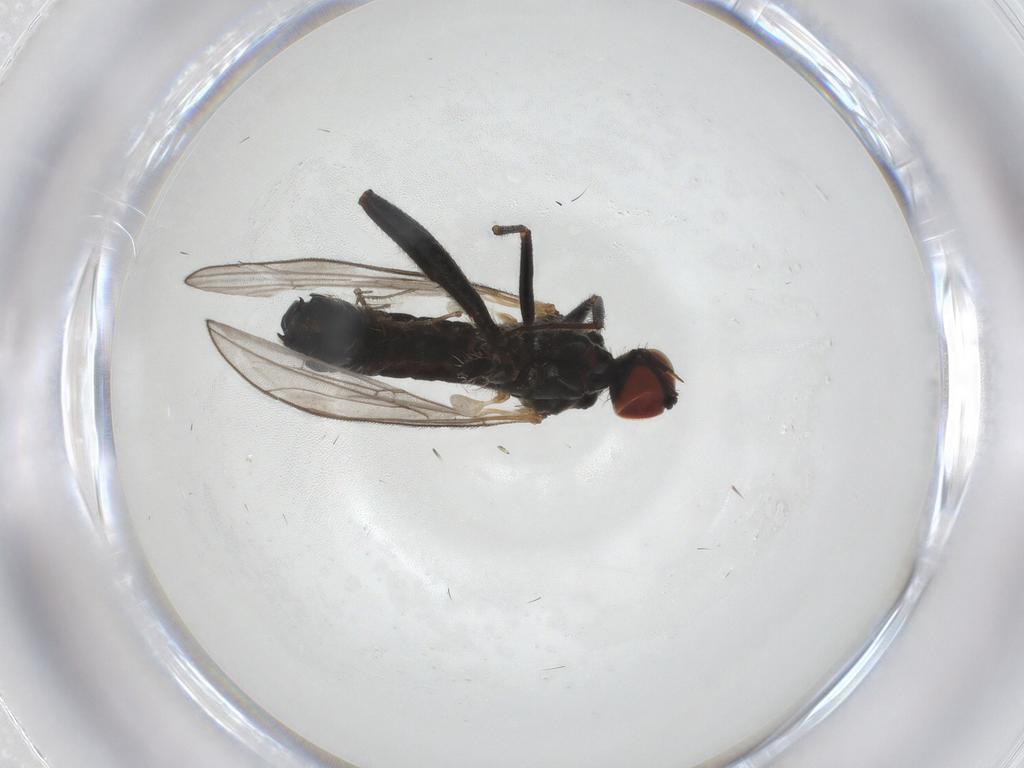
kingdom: Animalia
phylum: Arthropoda
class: Insecta
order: Diptera
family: Hybotidae
